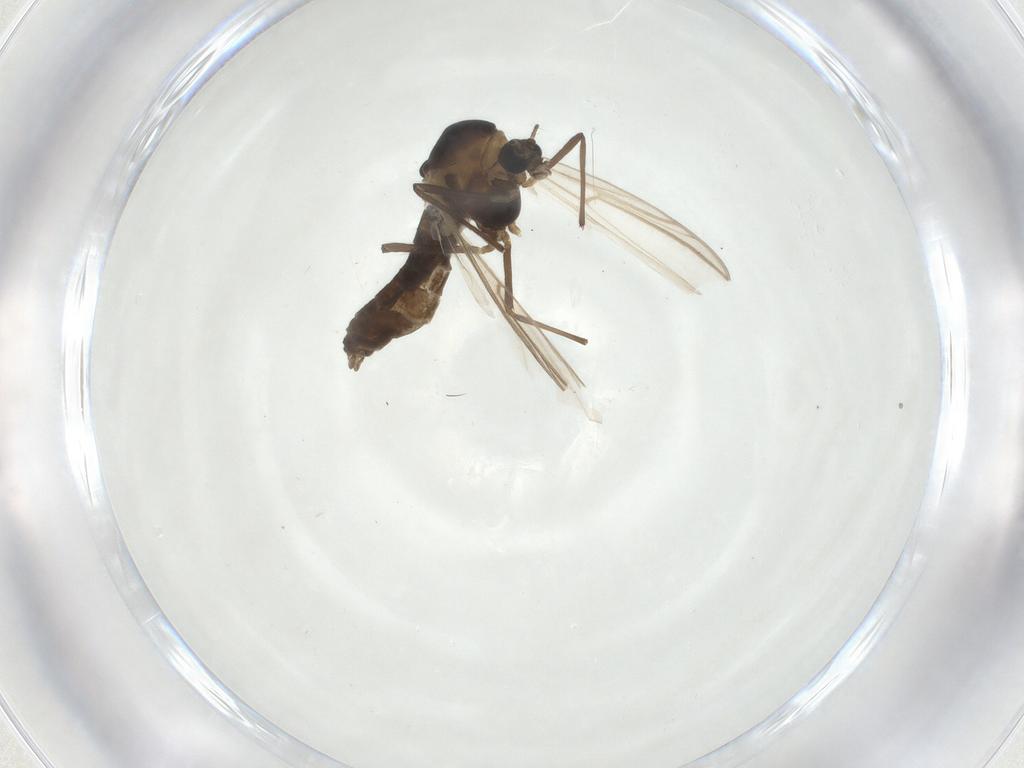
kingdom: Animalia
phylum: Arthropoda
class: Insecta
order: Diptera
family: Chironomidae
